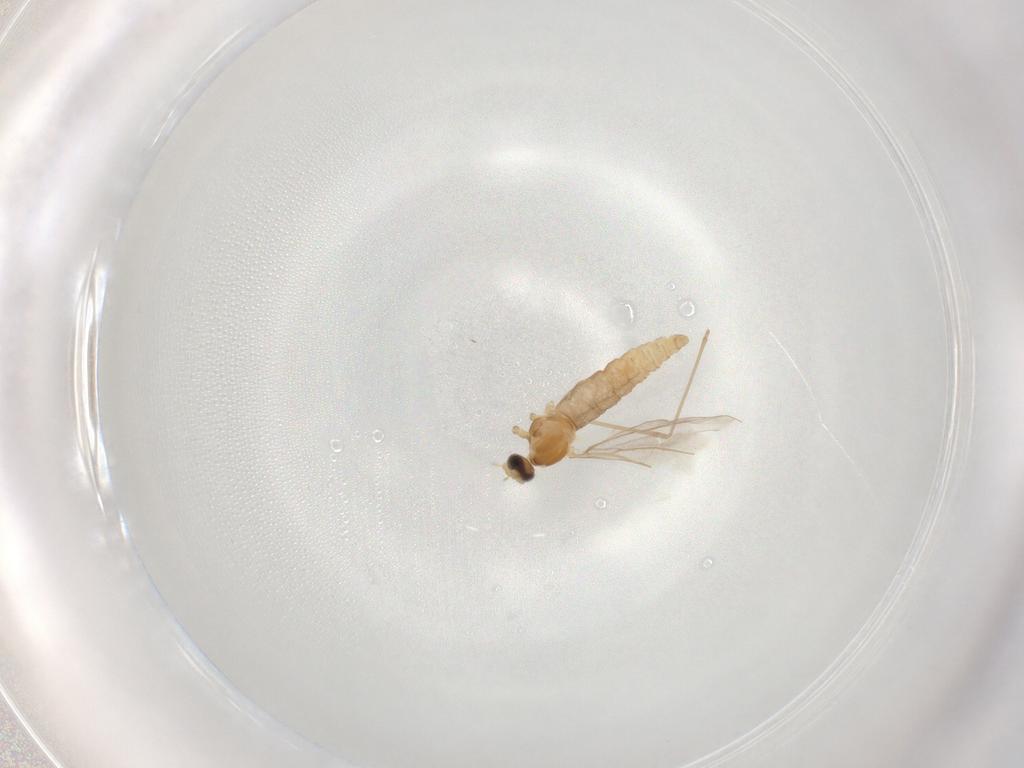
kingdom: Animalia
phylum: Arthropoda
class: Insecta
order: Diptera
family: Cecidomyiidae
